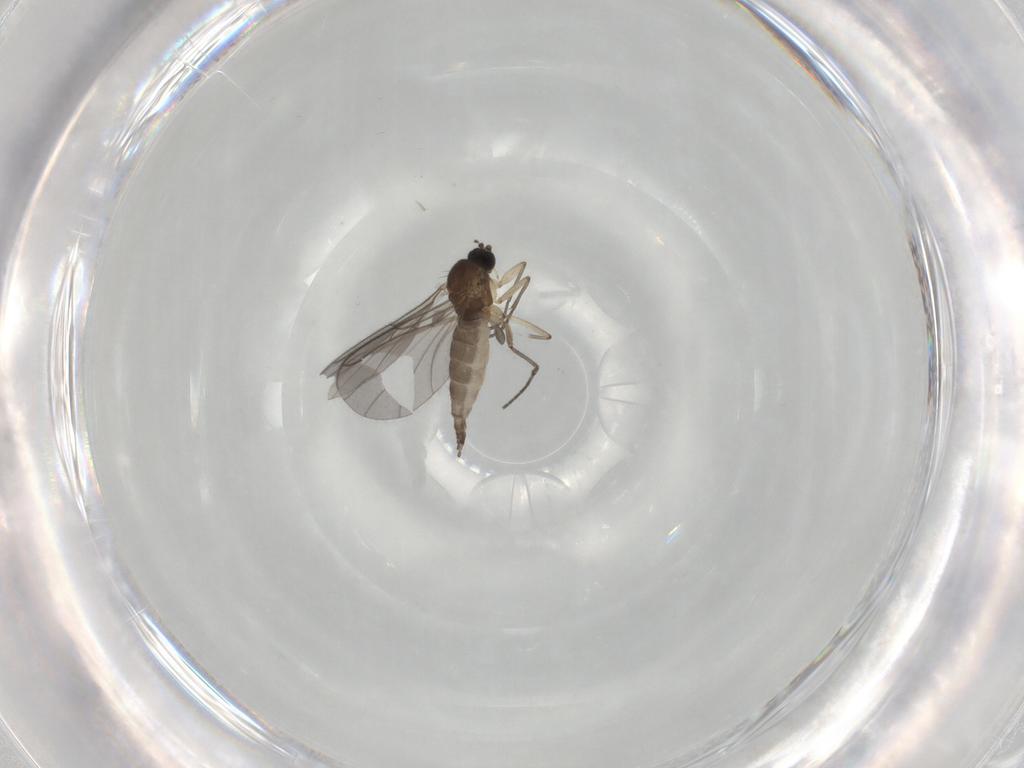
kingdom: Animalia
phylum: Arthropoda
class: Insecta
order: Diptera
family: Sciaridae
